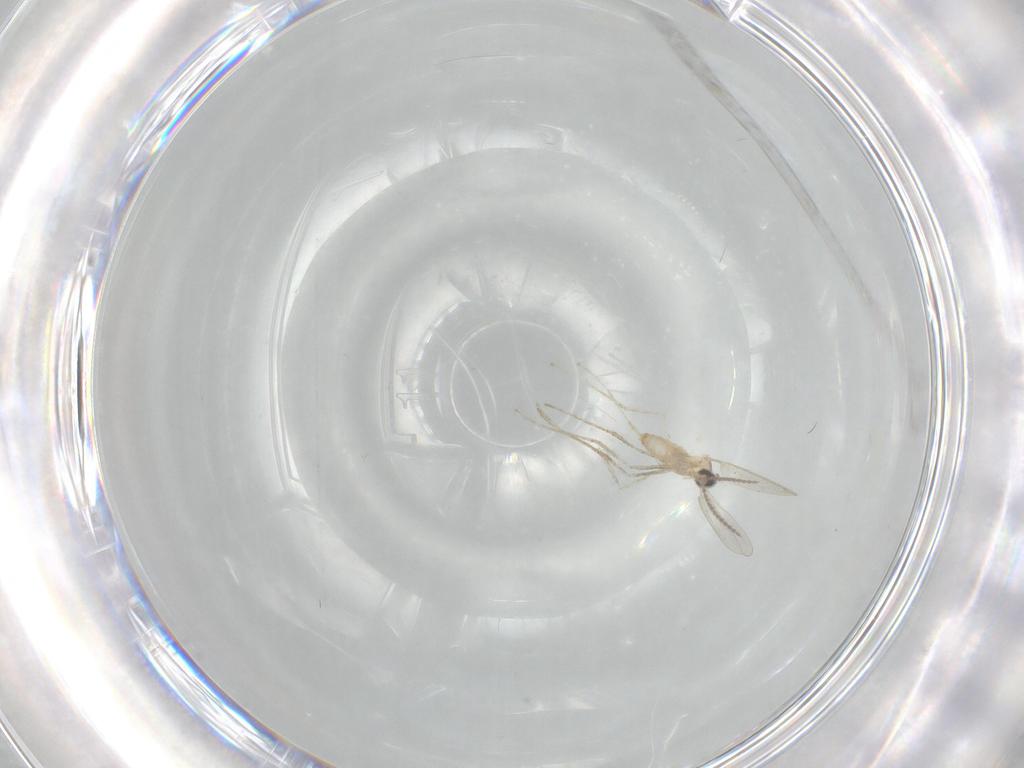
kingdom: Animalia
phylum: Arthropoda
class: Insecta
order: Diptera
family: Cecidomyiidae
